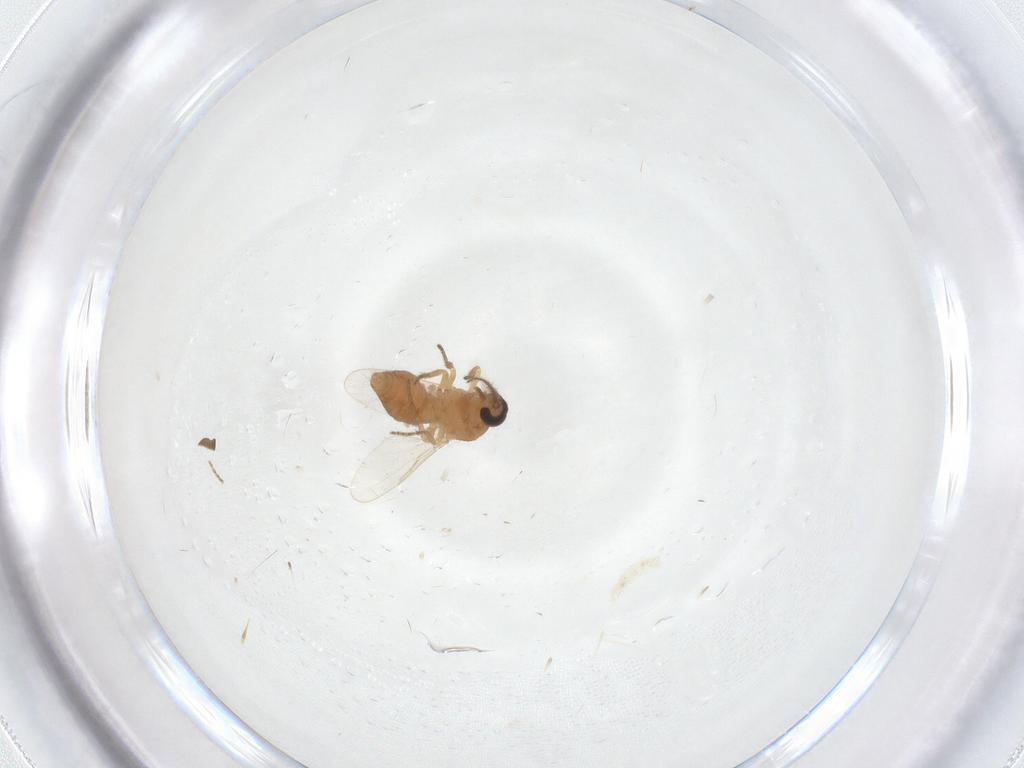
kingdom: Animalia
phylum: Arthropoda
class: Insecta
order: Diptera
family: Ceratopogonidae
